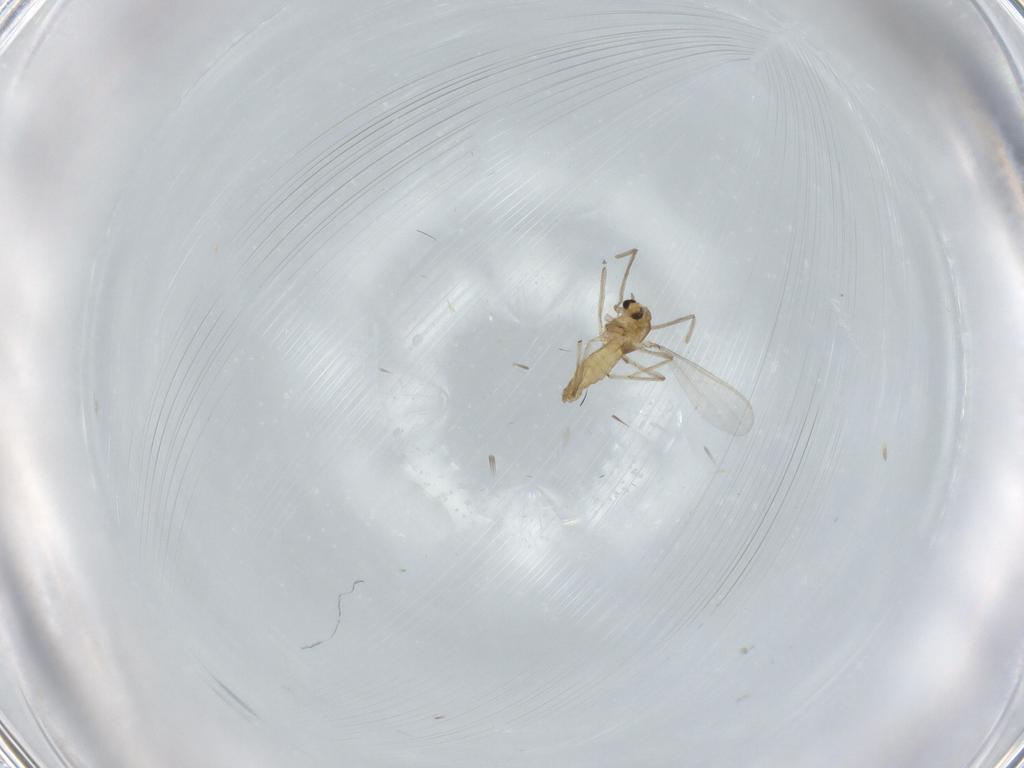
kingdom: Animalia
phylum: Arthropoda
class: Insecta
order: Diptera
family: Chironomidae
